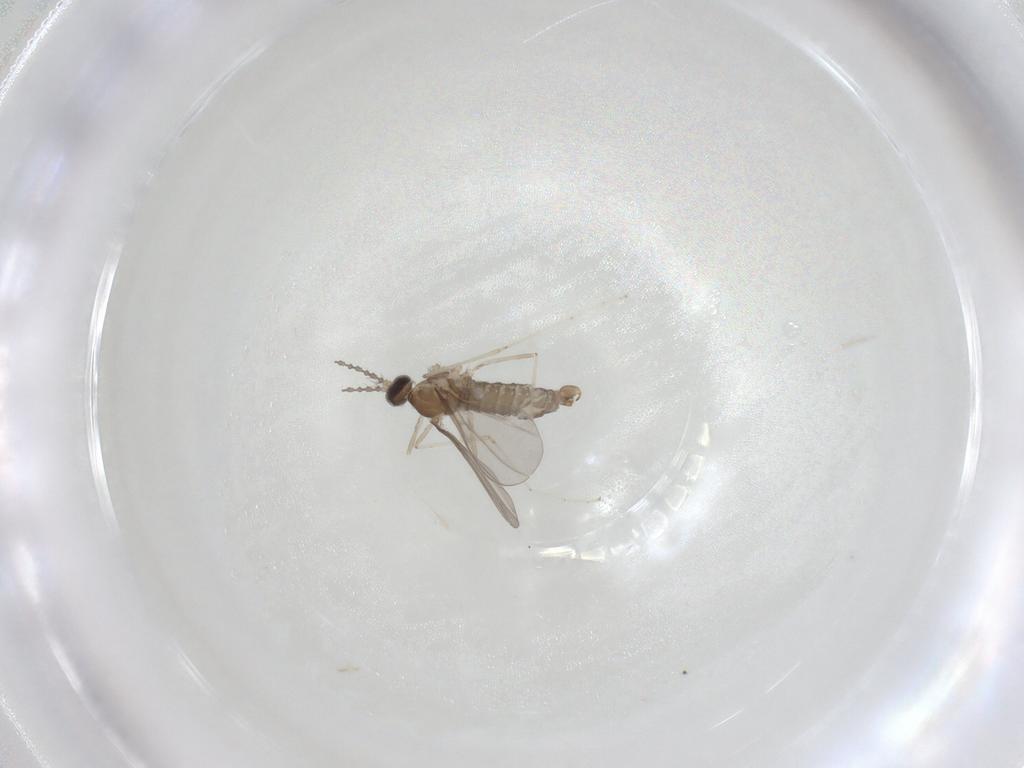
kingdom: Animalia
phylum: Arthropoda
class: Insecta
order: Diptera
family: Cecidomyiidae
